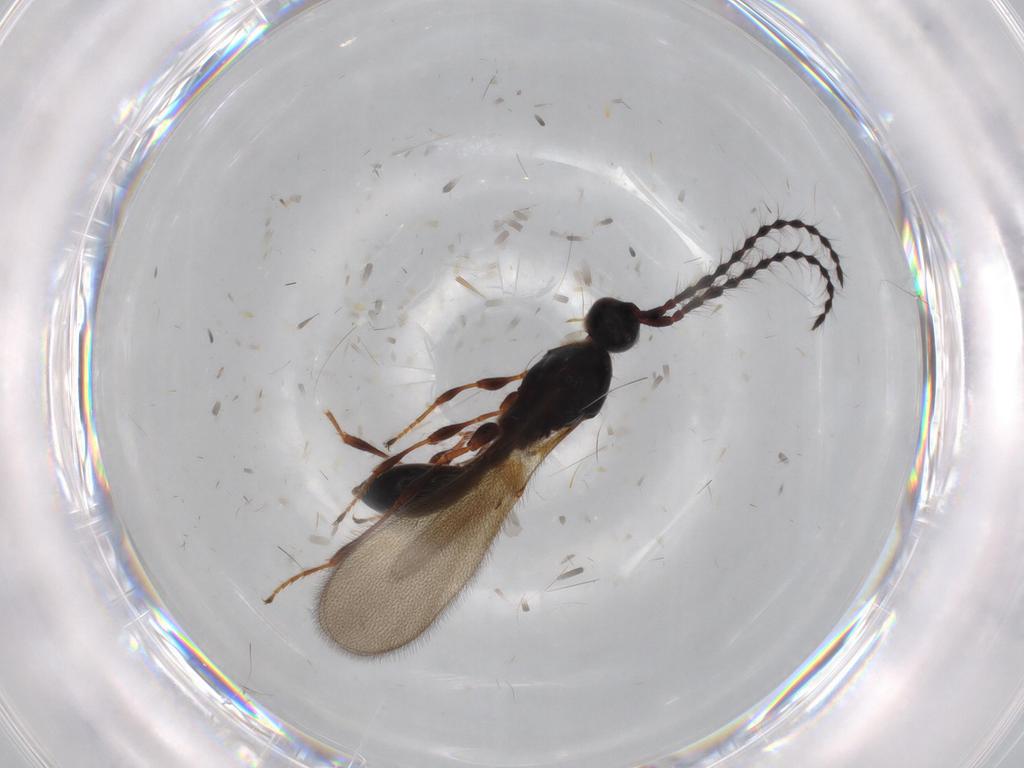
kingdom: Animalia
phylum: Arthropoda
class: Insecta
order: Hymenoptera
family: Diapriidae
